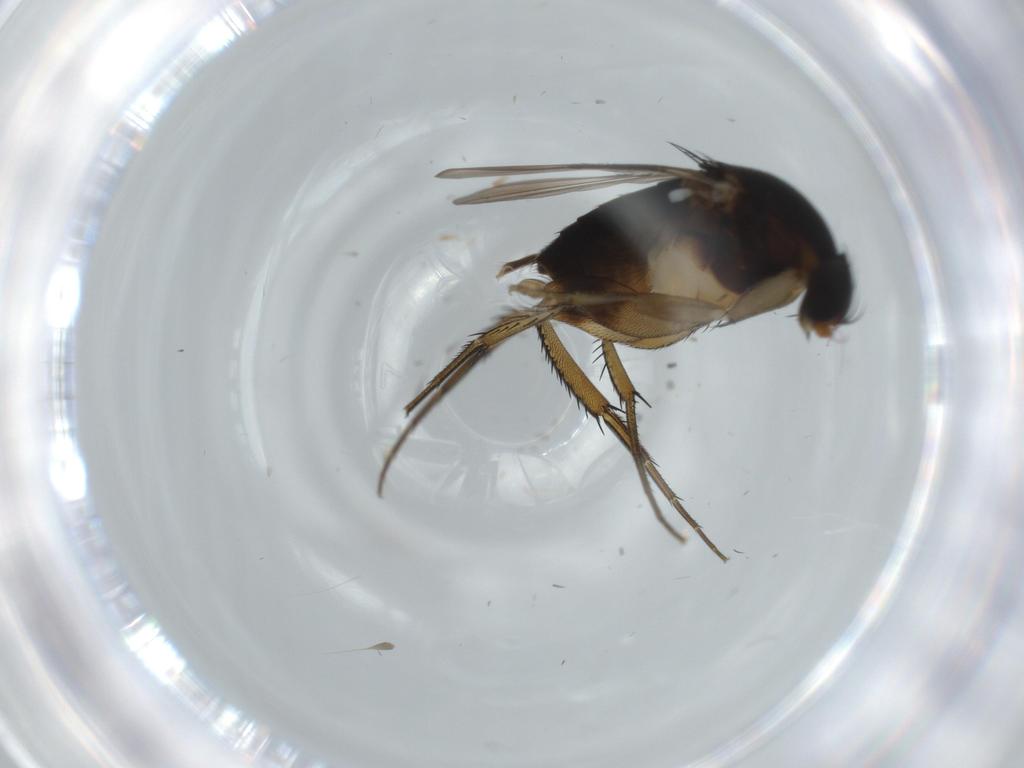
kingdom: Animalia
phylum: Arthropoda
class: Insecta
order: Diptera
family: Phoridae
